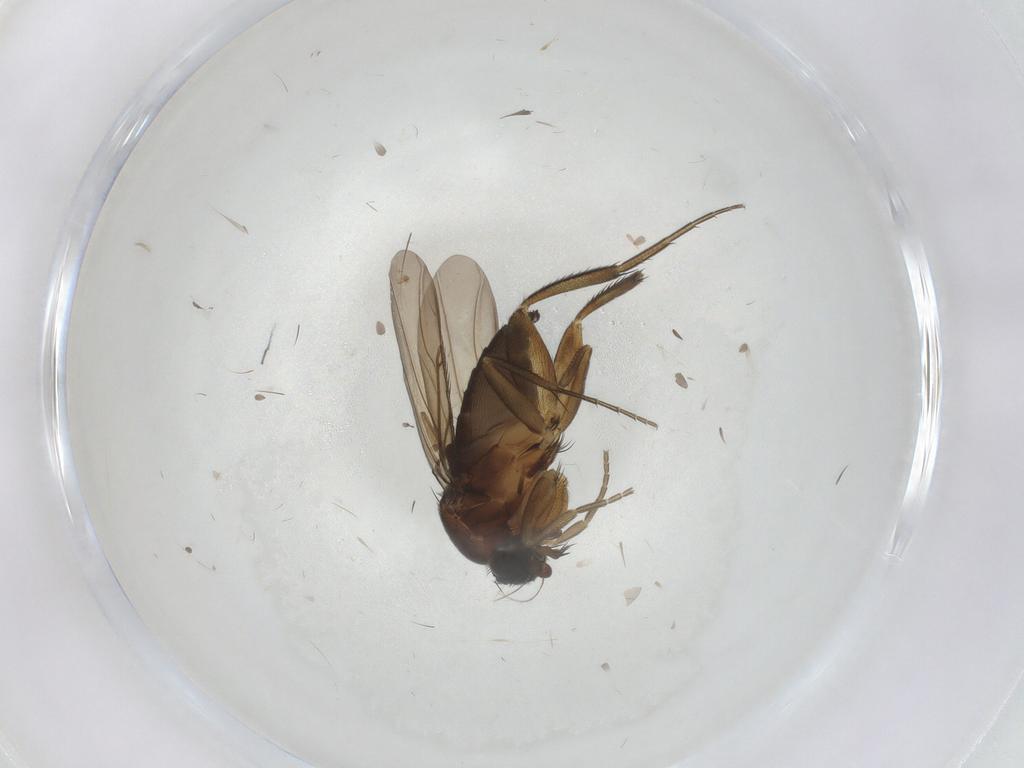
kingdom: Animalia
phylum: Arthropoda
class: Insecta
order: Diptera
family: Phoridae
